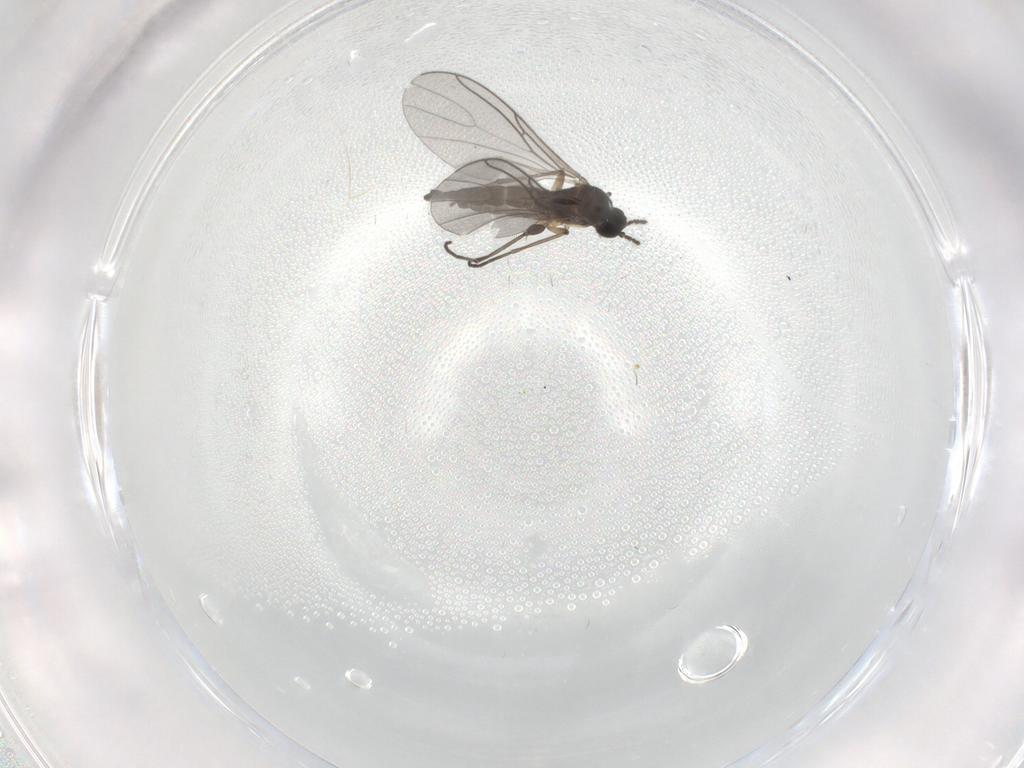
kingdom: Animalia
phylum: Arthropoda
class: Insecta
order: Diptera
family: Sciaridae
